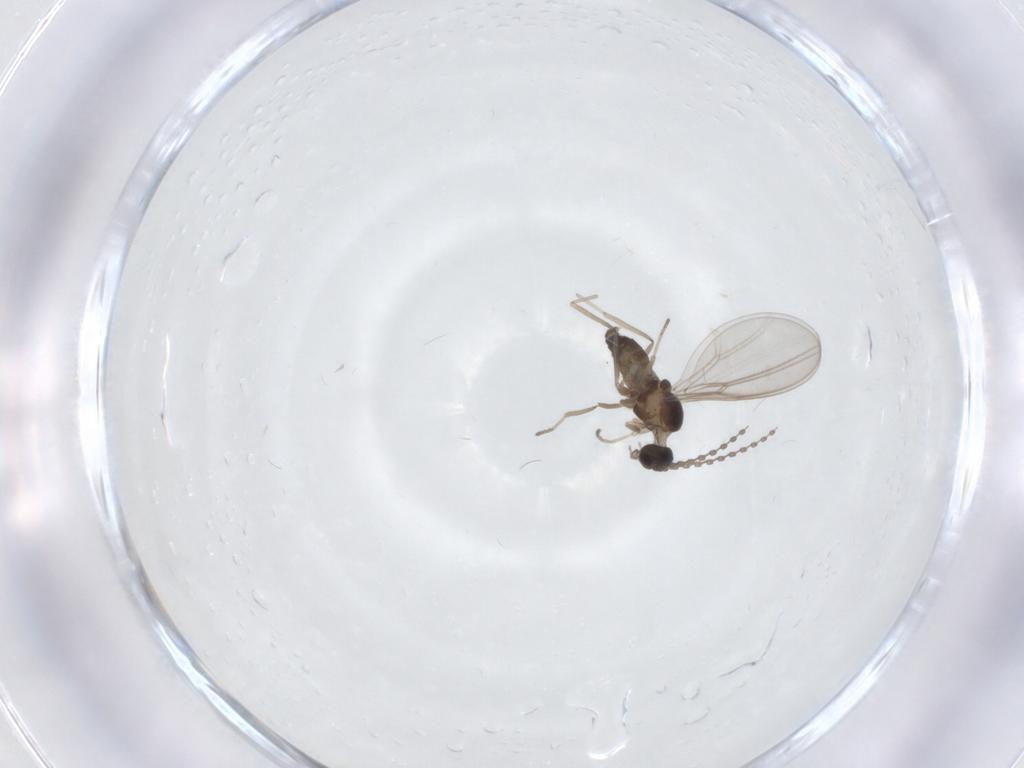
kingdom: Animalia
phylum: Arthropoda
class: Insecta
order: Diptera
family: Cecidomyiidae
